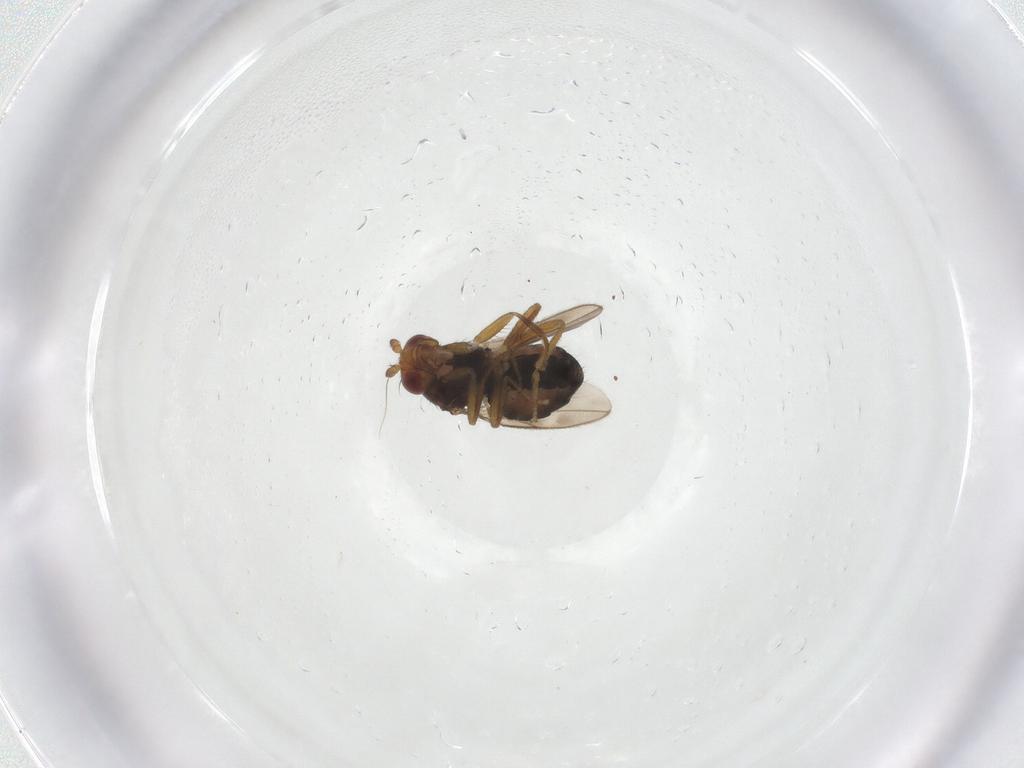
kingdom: Animalia
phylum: Arthropoda
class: Insecta
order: Diptera
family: Sphaeroceridae
